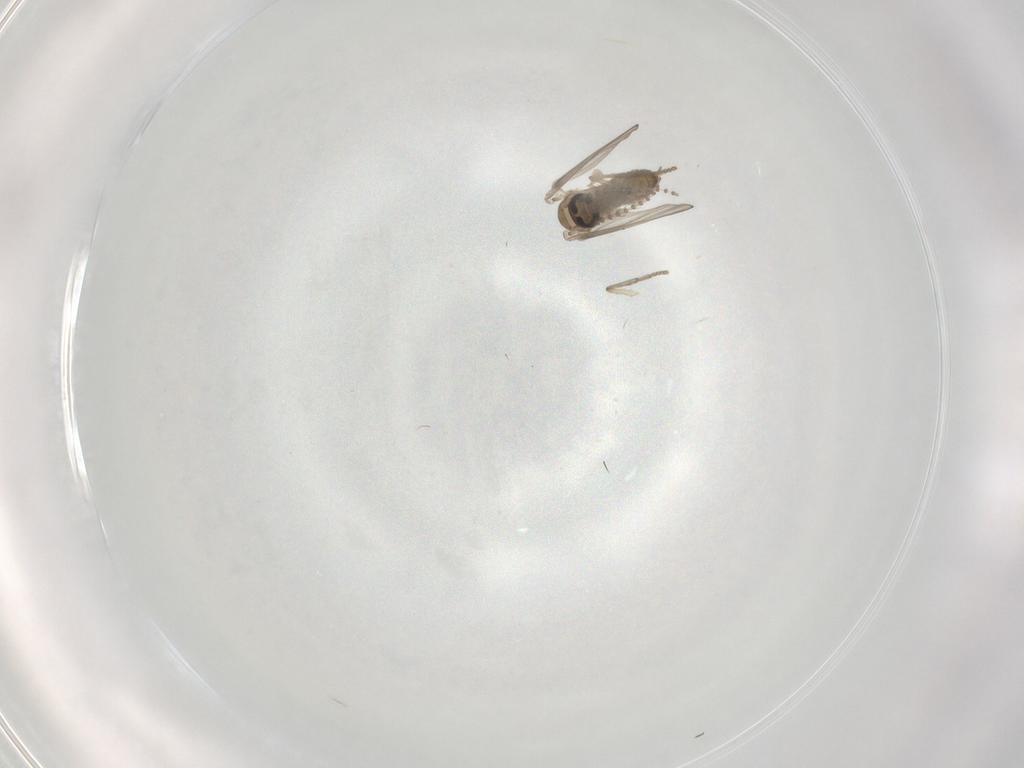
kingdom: Animalia
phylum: Arthropoda
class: Insecta
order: Diptera
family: Psychodidae
